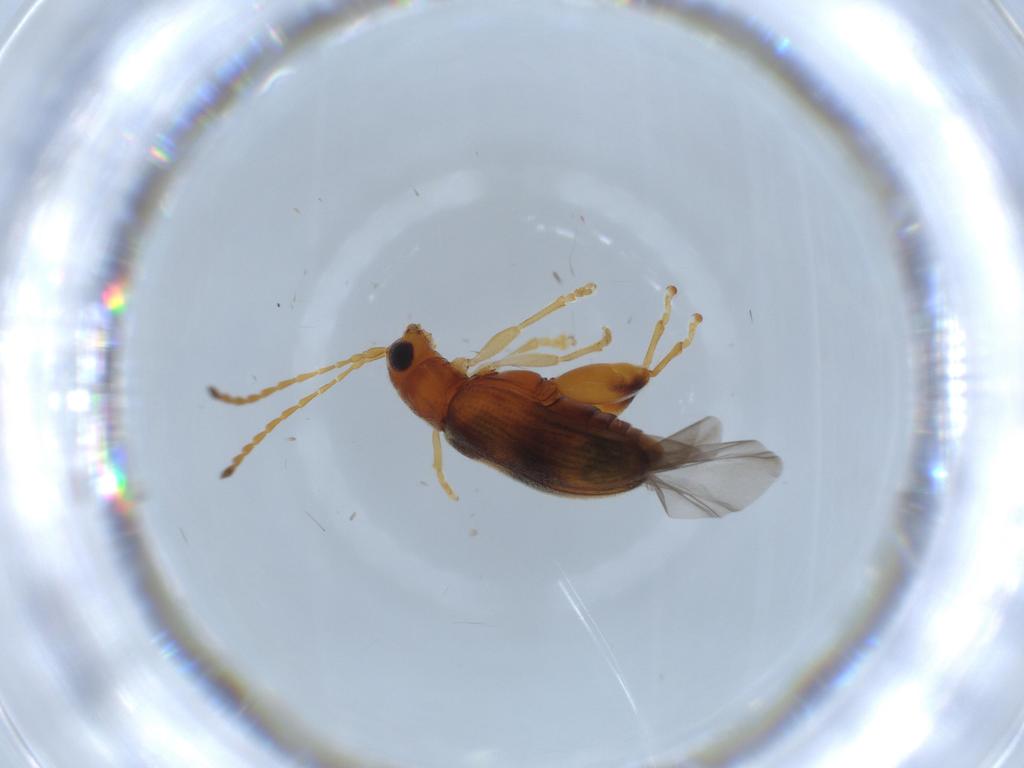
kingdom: Animalia
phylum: Arthropoda
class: Insecta
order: Coleoptera
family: Chrysomelidae
